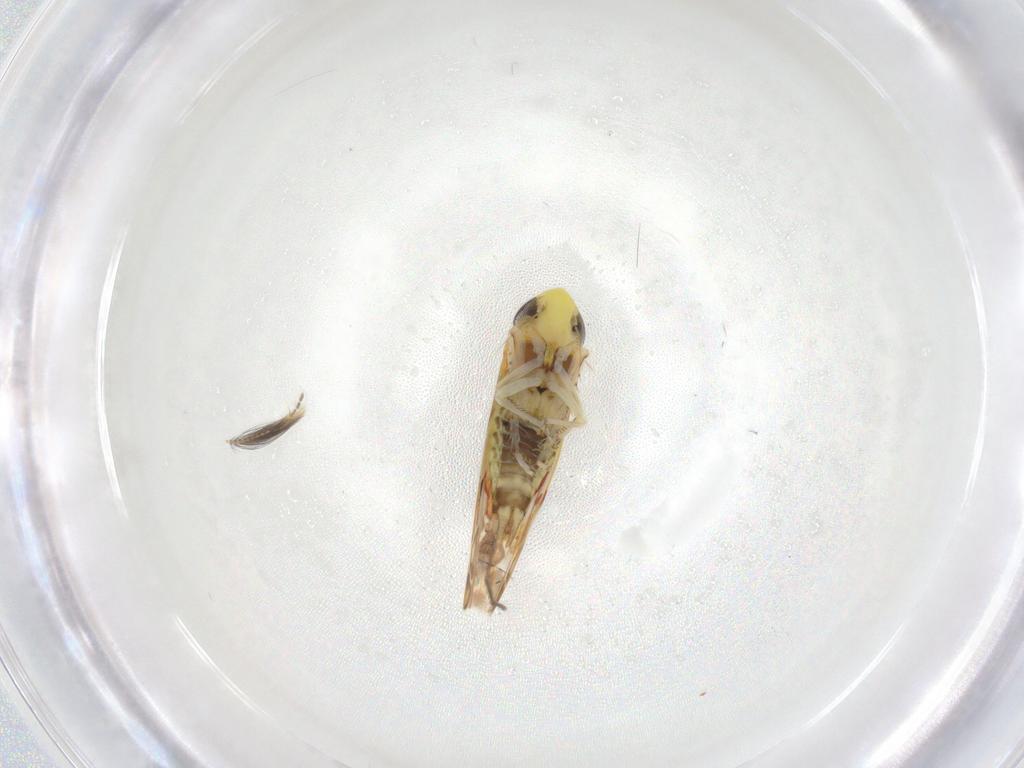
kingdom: Animalia
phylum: Arthropoda
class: Insecta
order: Hemiptera
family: Cicadellidae
